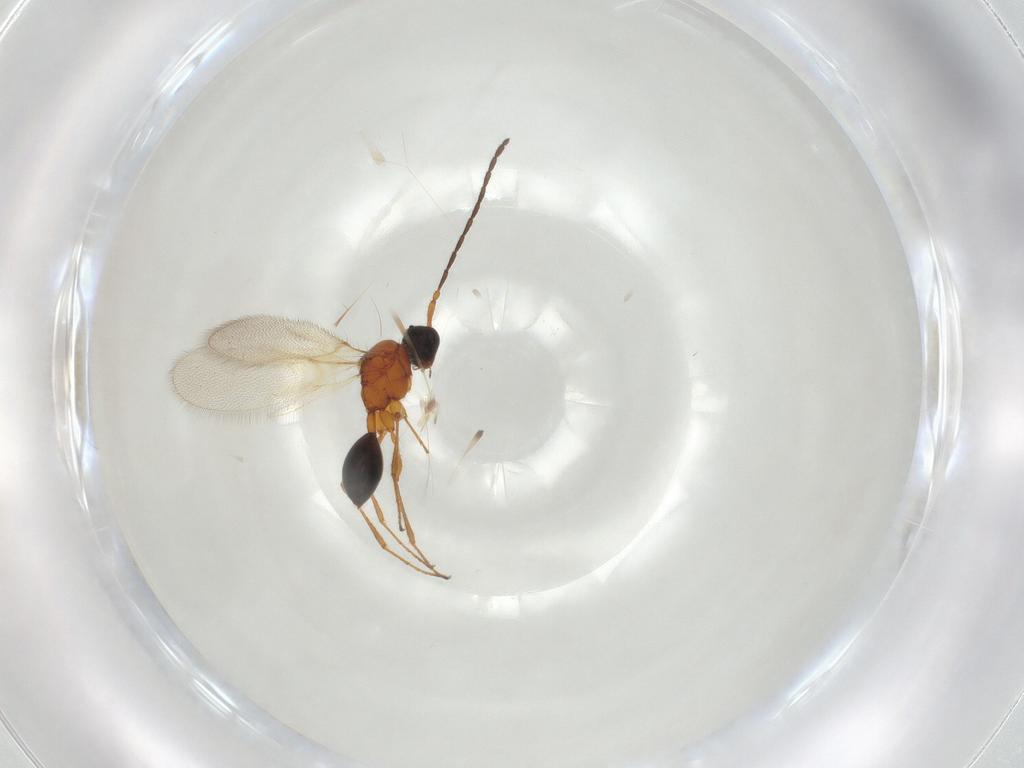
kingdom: Animalia
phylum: Arthropoda
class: Insecta
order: Hymenoptera
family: Diapriidae
